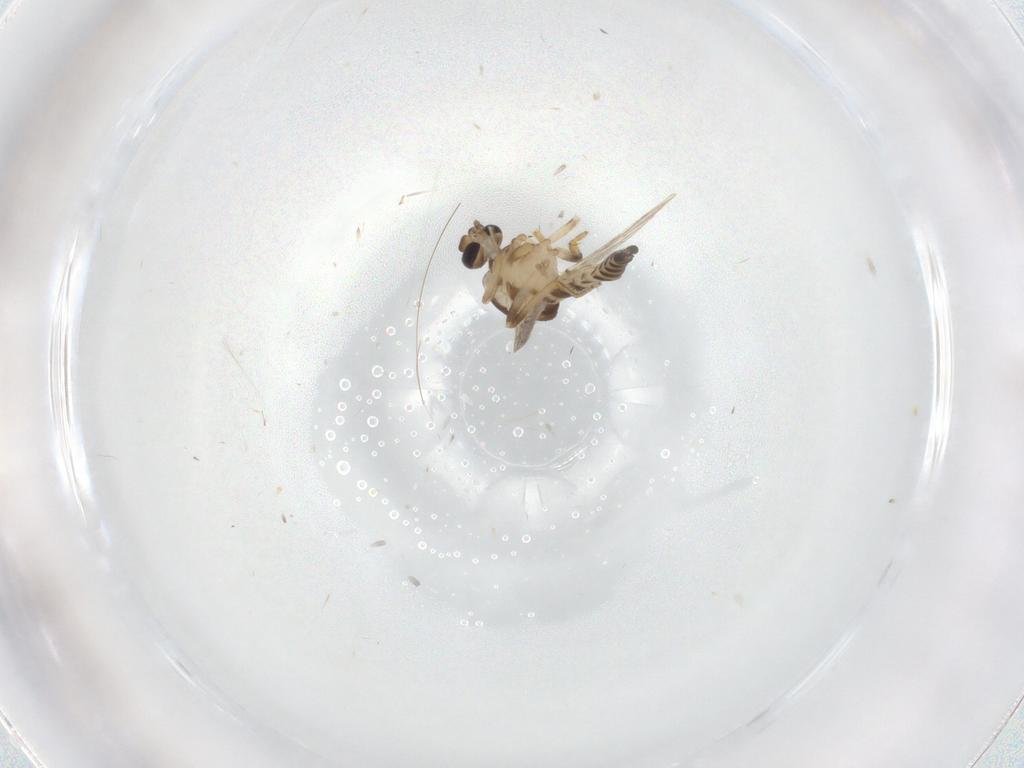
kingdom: Animalia
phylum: Arthropoda
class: Insecta
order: Diptera
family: Ceratopogonidae
